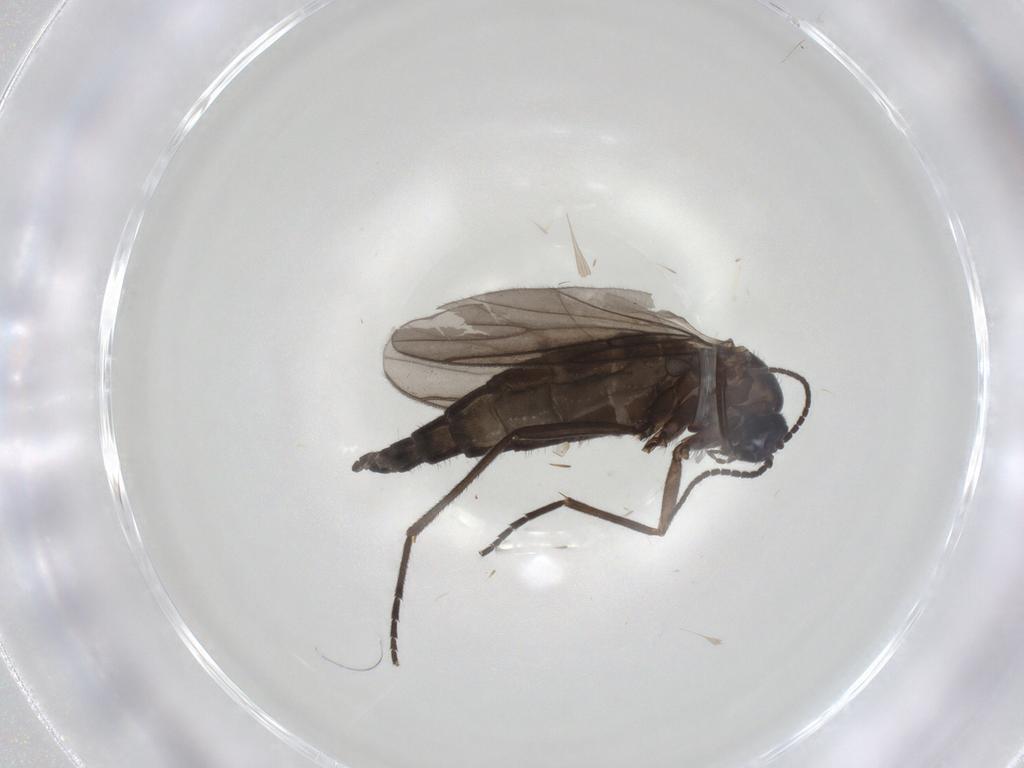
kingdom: Animalia
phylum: Arthropoda
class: Insecta
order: Diptera
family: Sciaridae
